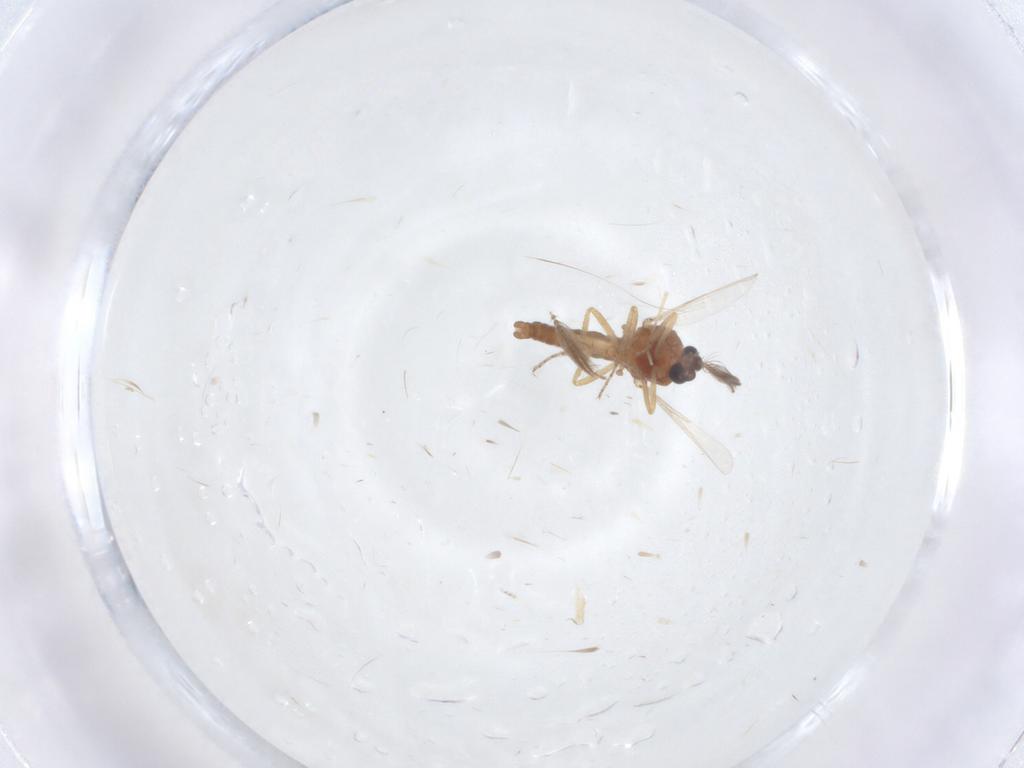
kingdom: Animalia
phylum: Arthropoda
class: Insecta
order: Diptera
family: Ceratopogonidae
